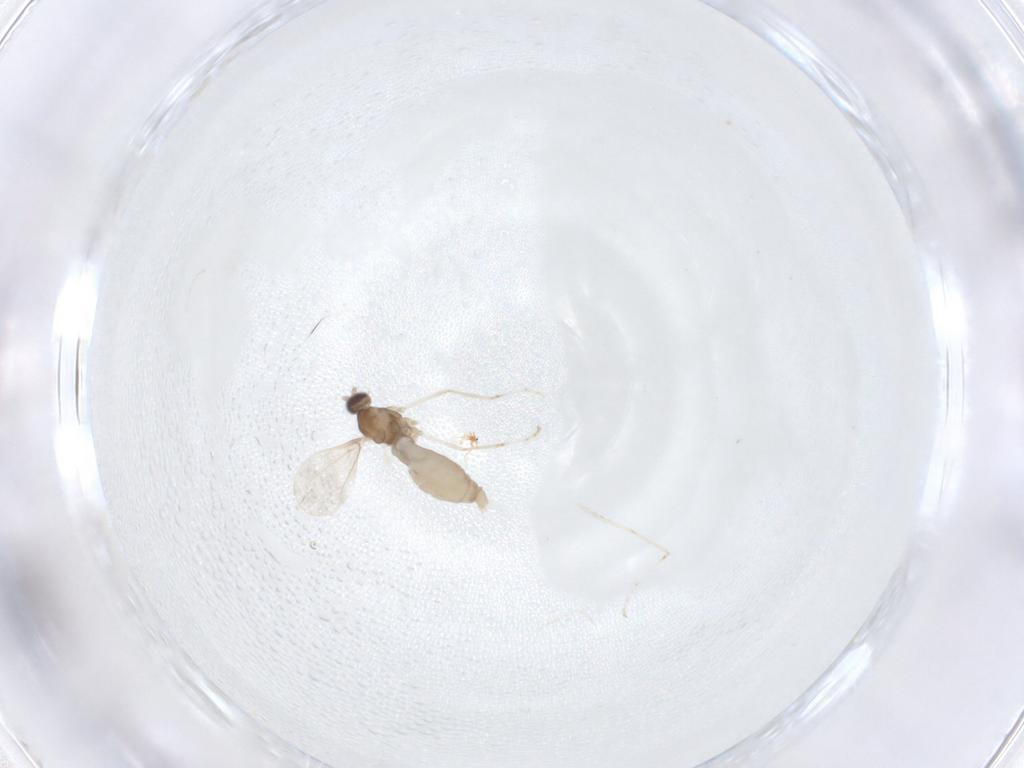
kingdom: Animalia
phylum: Arthropoda
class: Insecta
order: Diptera
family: Cecidomyiidae
